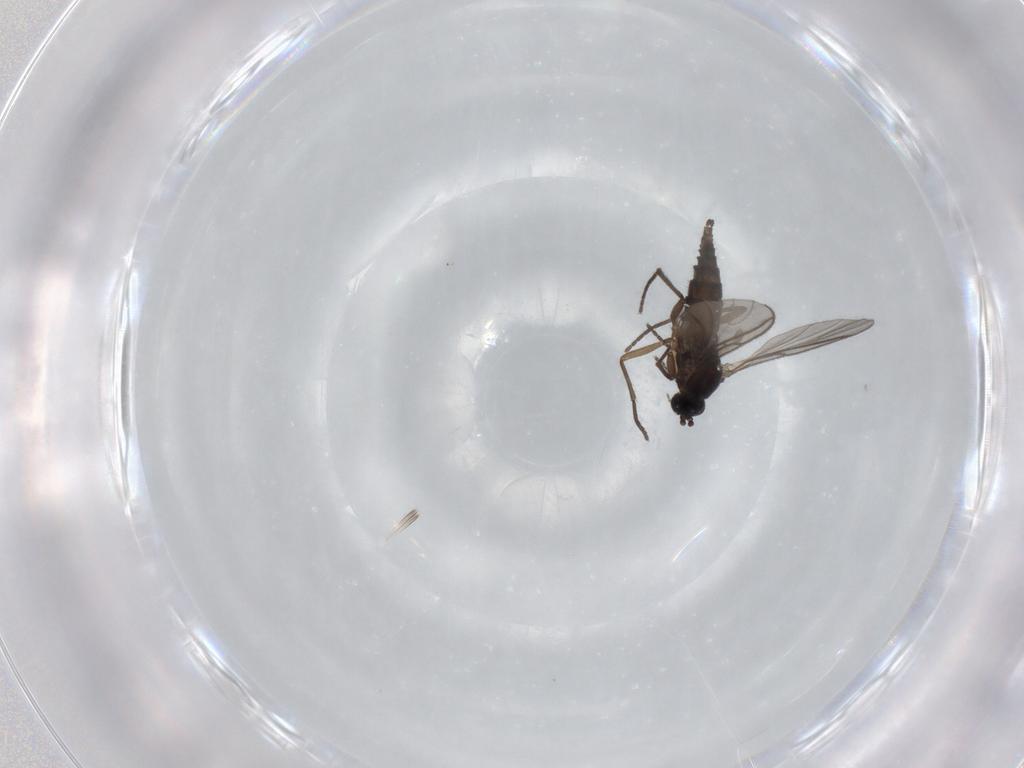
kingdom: Animalia
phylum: Arthropoda
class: Insecta
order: Diptera
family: Sciaridae
